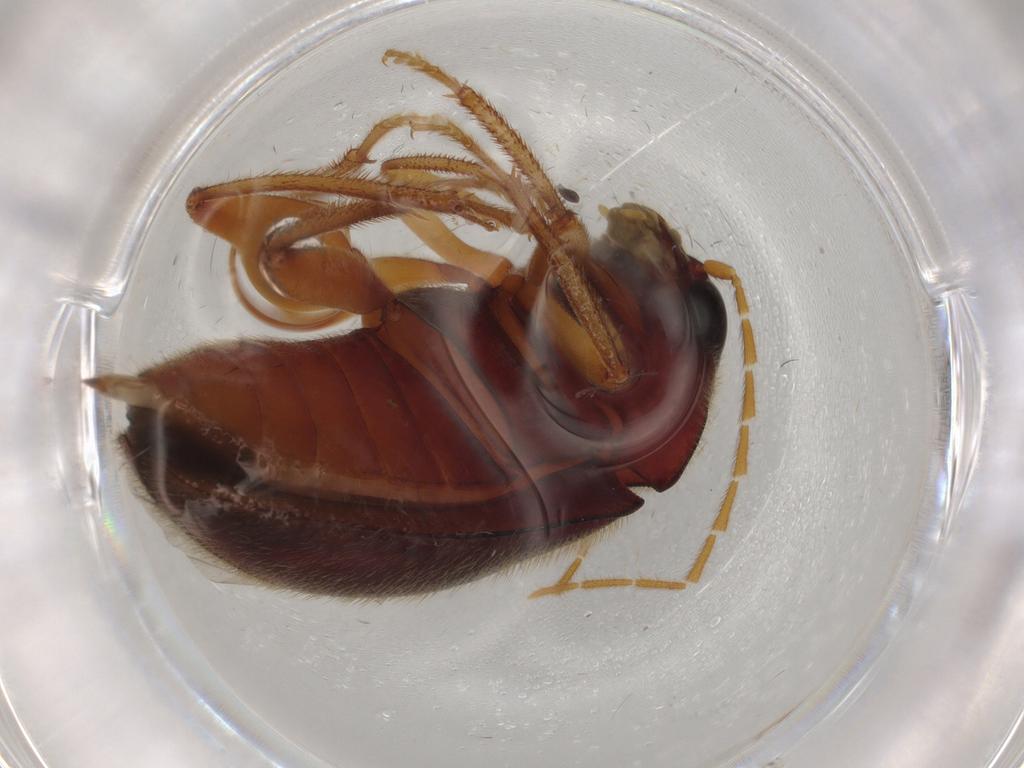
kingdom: Animalia
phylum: Arthropoda
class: Insecta
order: Coleoptera
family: Ptilodactylidae
